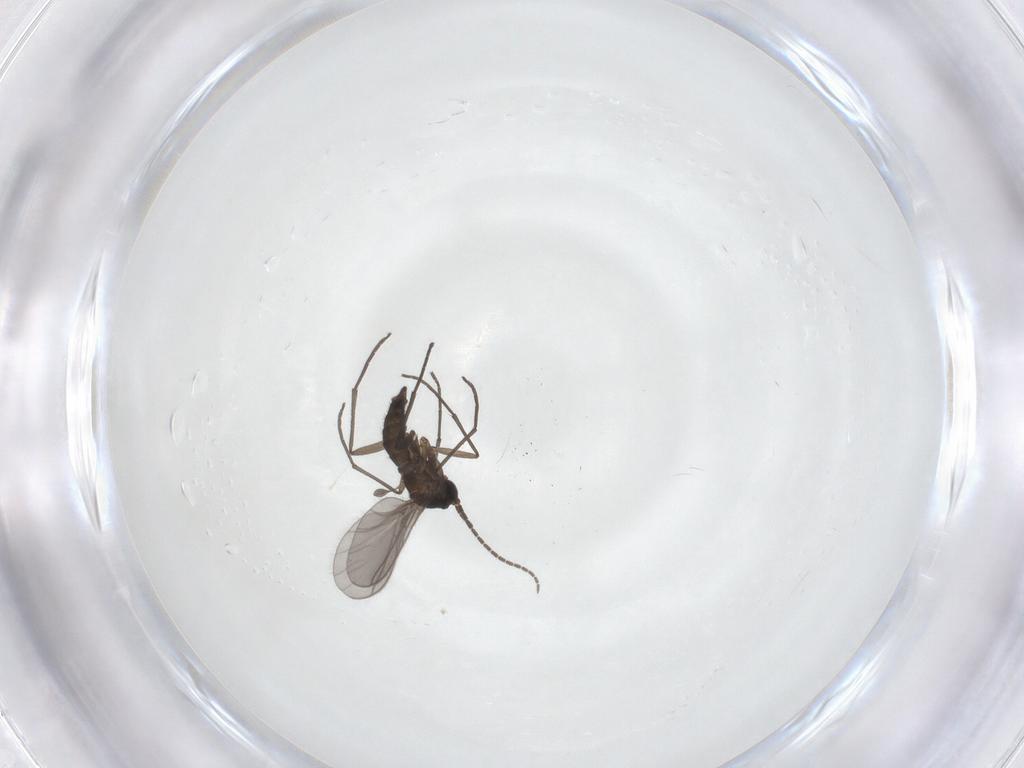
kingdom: Animalia
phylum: Arthropoda
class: Insecta
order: Diptera
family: Sciaridae
